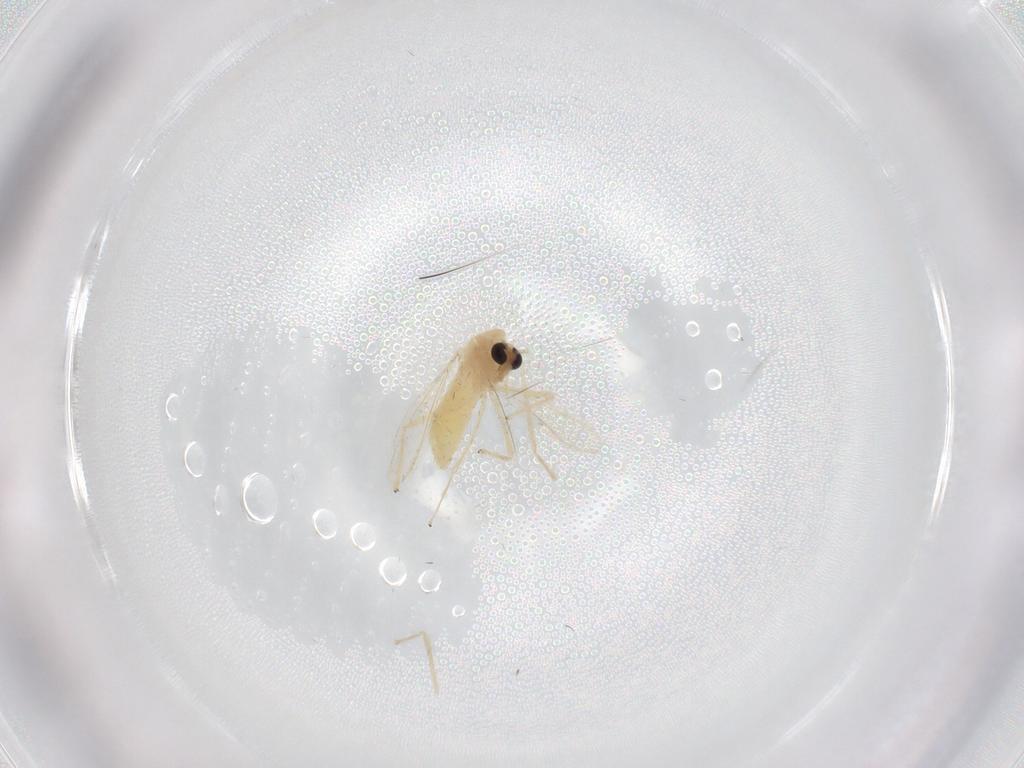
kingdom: Animalia
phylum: Arthropoda
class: Insecta
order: Diptera
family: Chironomidae
